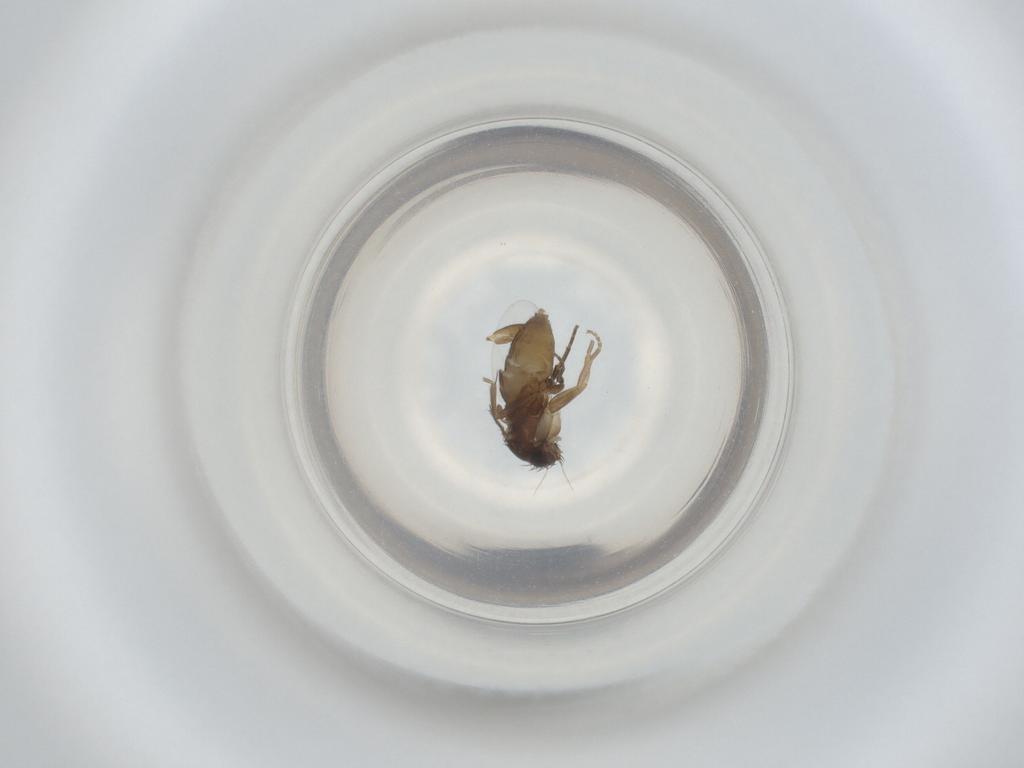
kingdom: Animalia
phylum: Arthropoda
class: Insecta
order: Diptera
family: Phoridae
